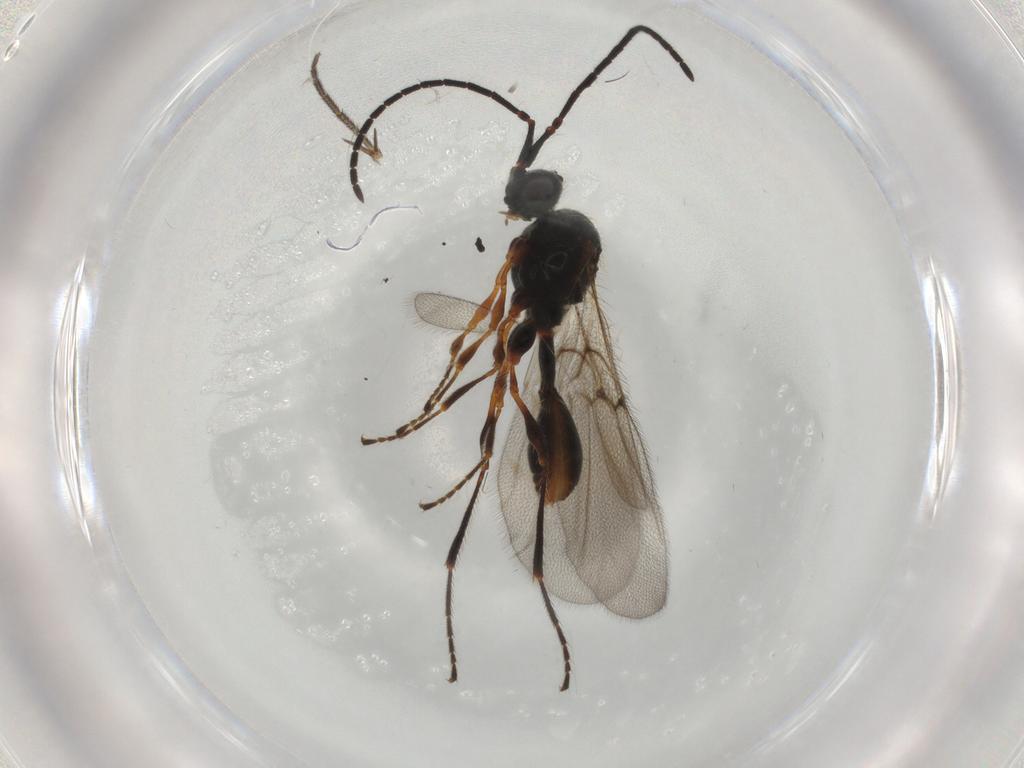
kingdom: Animalia
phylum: Arthropoda
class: Insecta
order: Hymenoptera
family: Diapriidae
